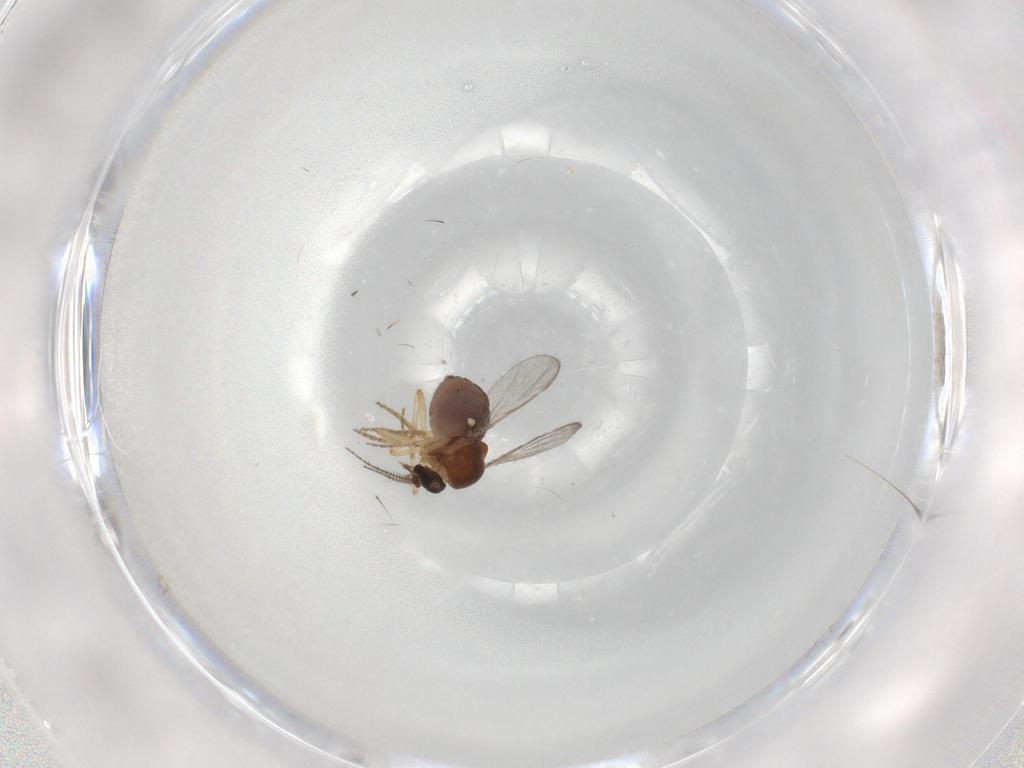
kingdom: Animalia
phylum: Arthropoda
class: Insecta
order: Diptera
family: Ceratopogonidae
